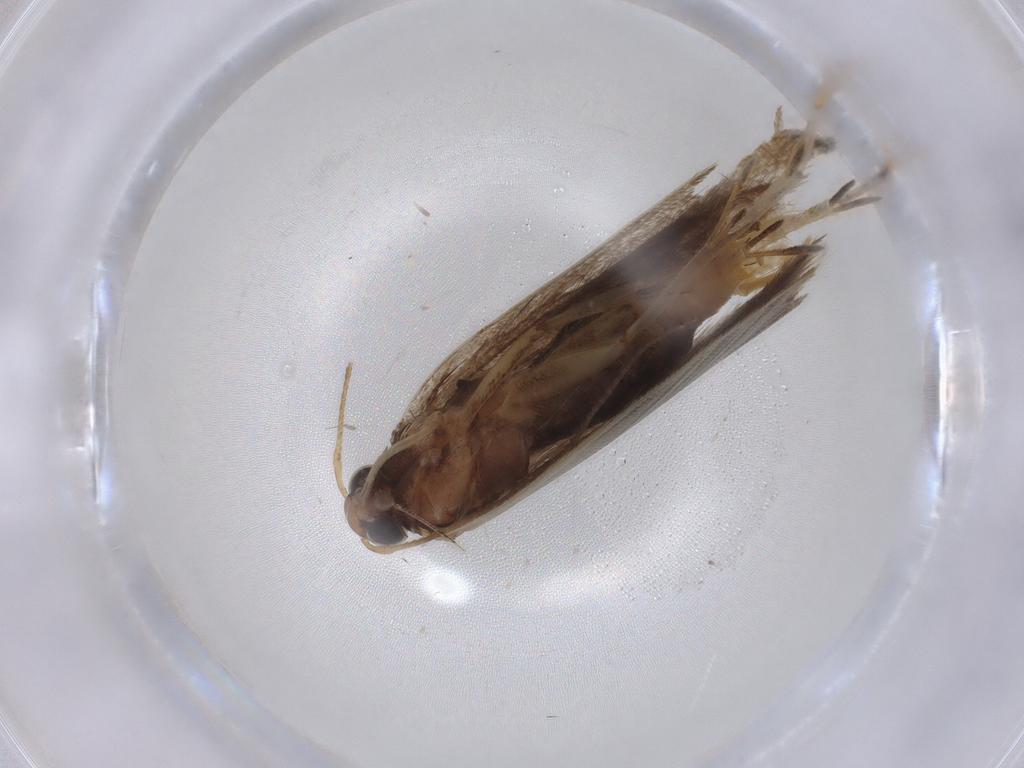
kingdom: Animalia
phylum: Arthropoda
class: Insecta
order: Lepidoptera
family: Gelechiidae
